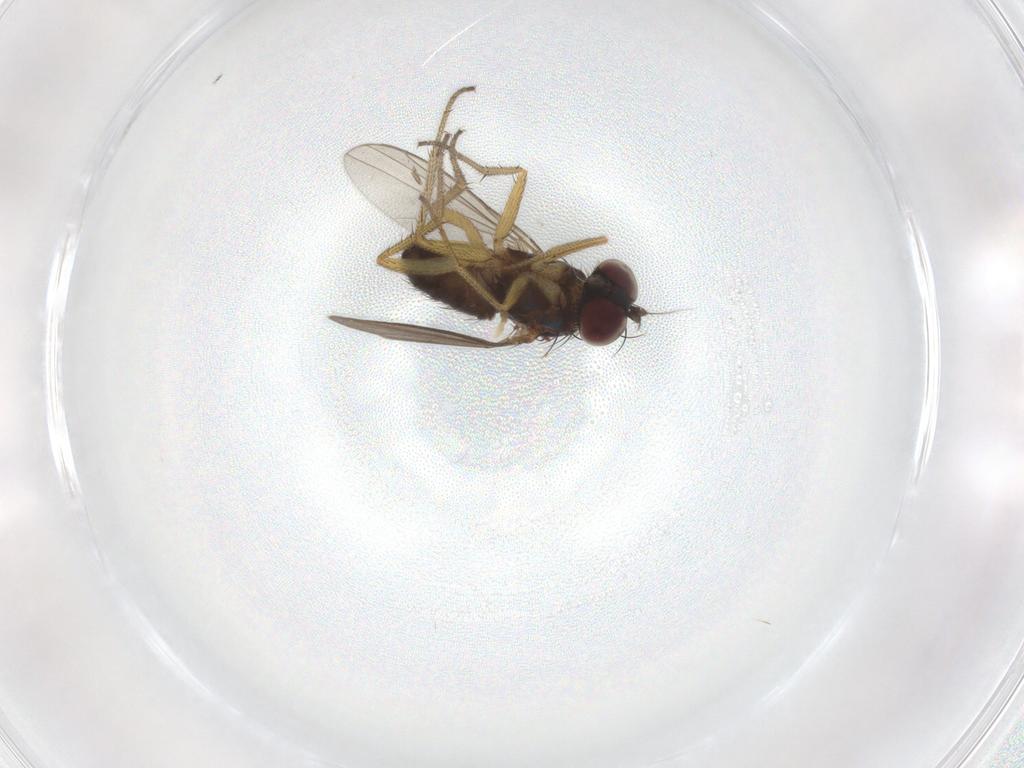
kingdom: Animalia
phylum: Arthropoda
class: Insecta
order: Diptera
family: Dolichopodidae
